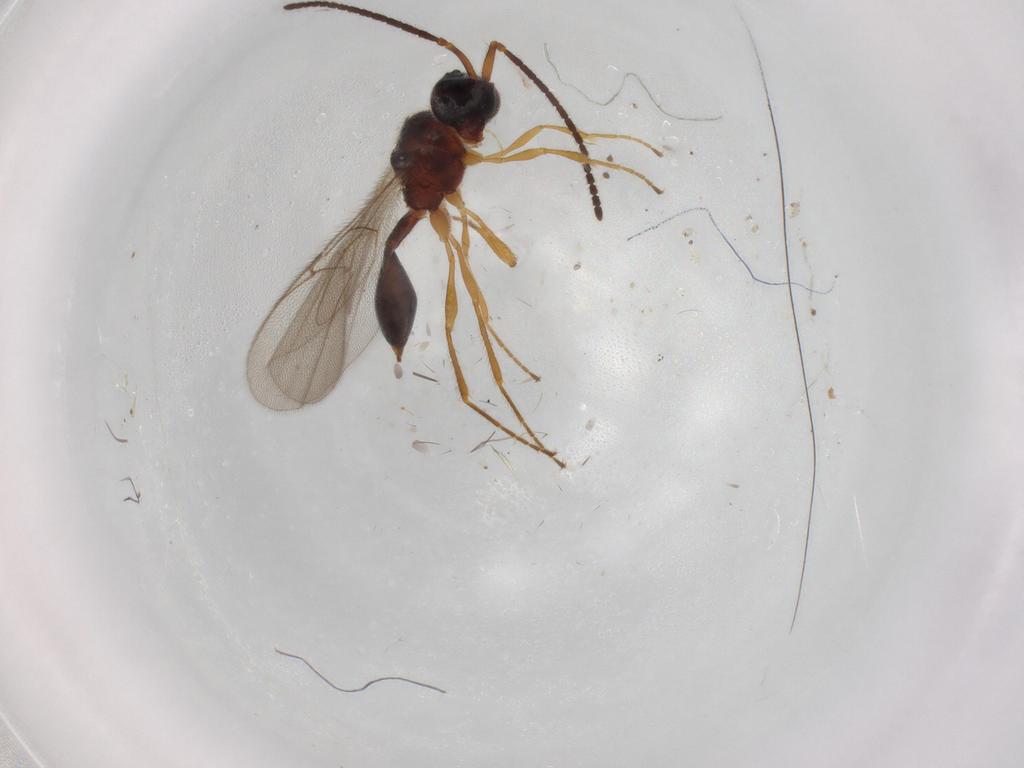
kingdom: Animalia
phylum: Arthropoda
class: Insecta
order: Hymenoptera
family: Diapriidae
